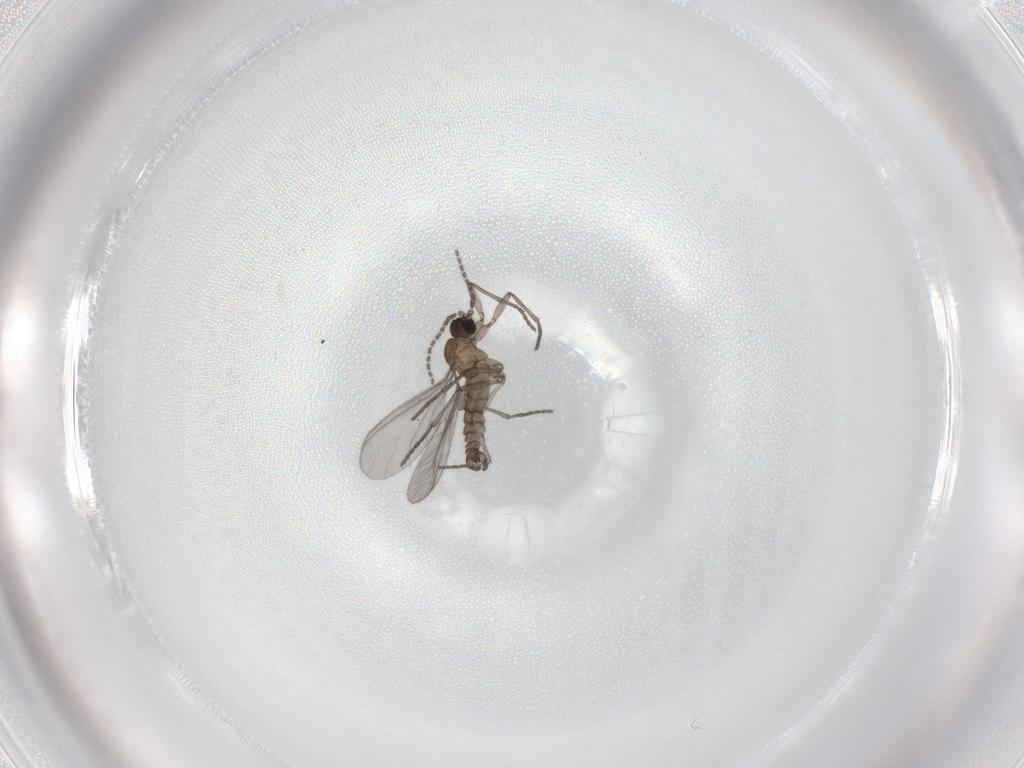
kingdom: Animalia
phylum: Arthropoda
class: Insecta
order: Diptera
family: Sciaridae
